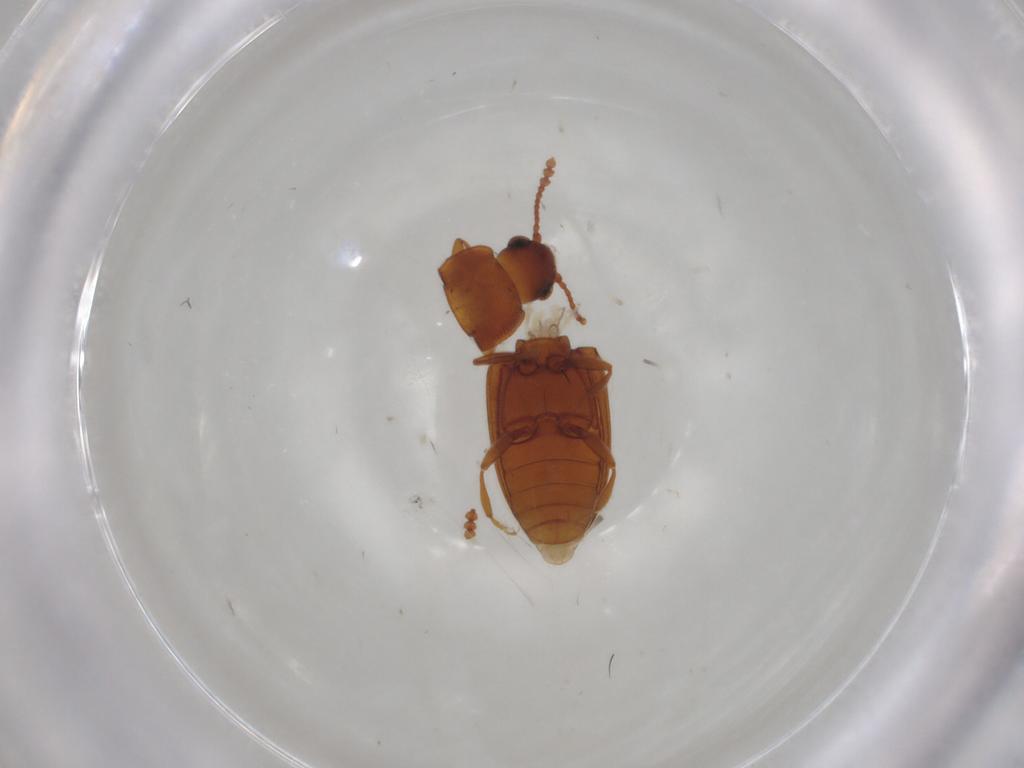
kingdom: Animalia
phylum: Arthropoda
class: Insecta
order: Coleoptera
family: Erotylidae
